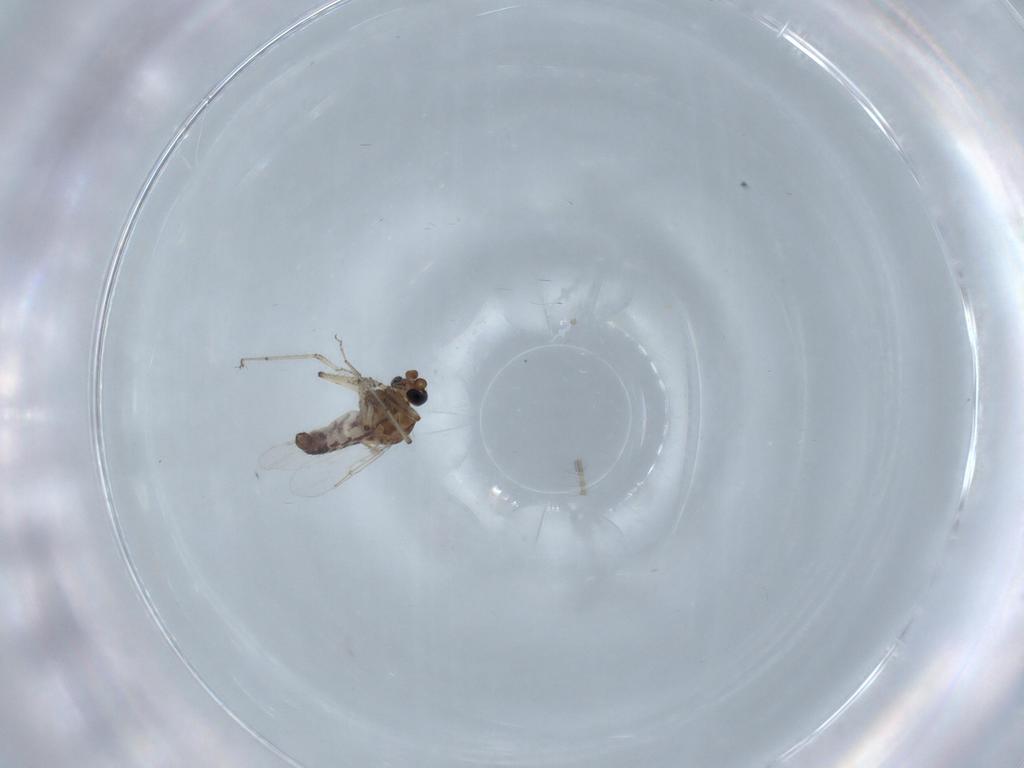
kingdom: Animalia
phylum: Arthropoda
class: Insecta
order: Diptera
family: Ceratopogonidae
